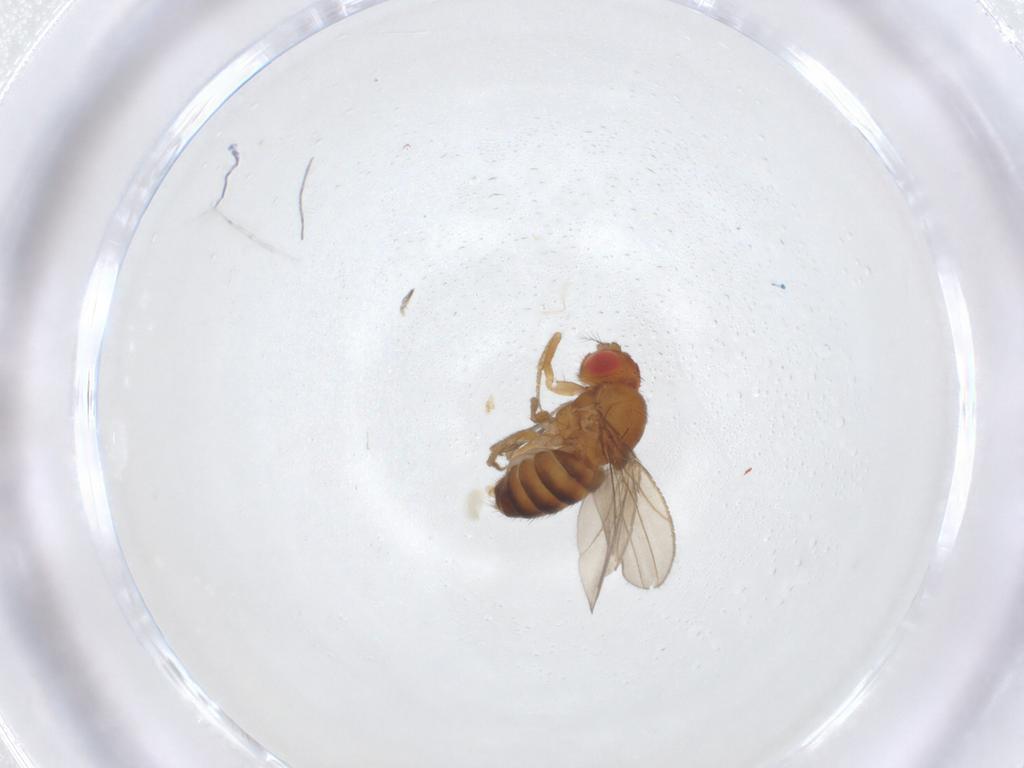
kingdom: Animalia
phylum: Arthropoda
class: Insecta
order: Diptera
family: Drosophilidae
